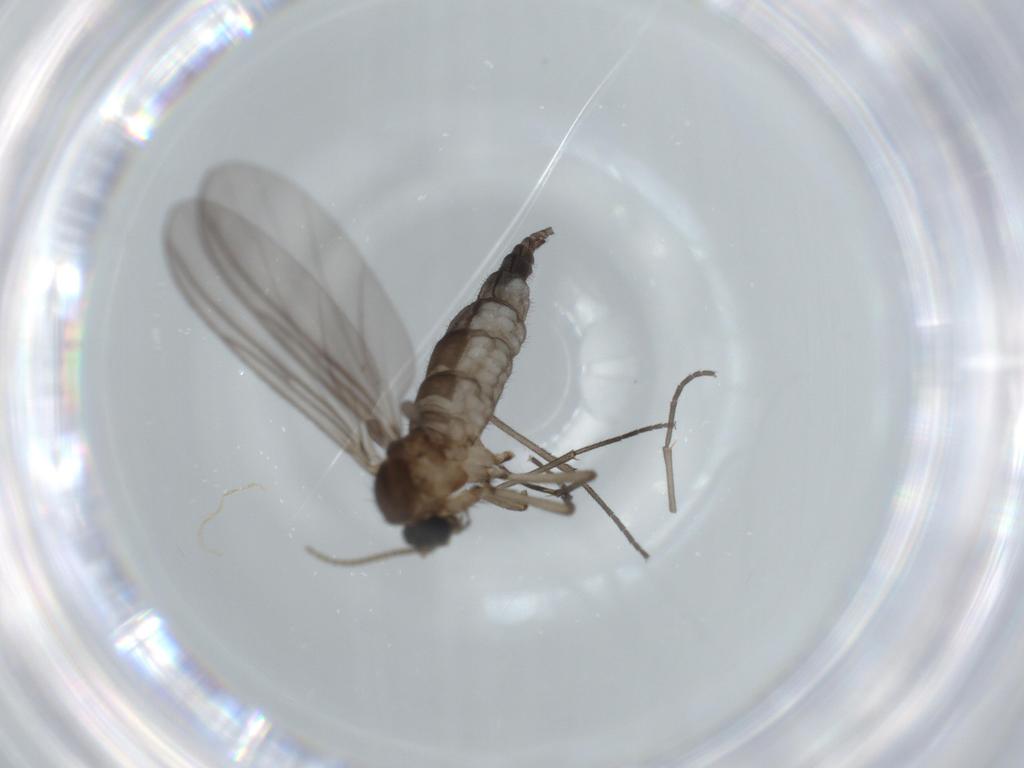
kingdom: Animalia
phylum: Arthropoda
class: Insecta
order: Diptera
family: Sciaridae
